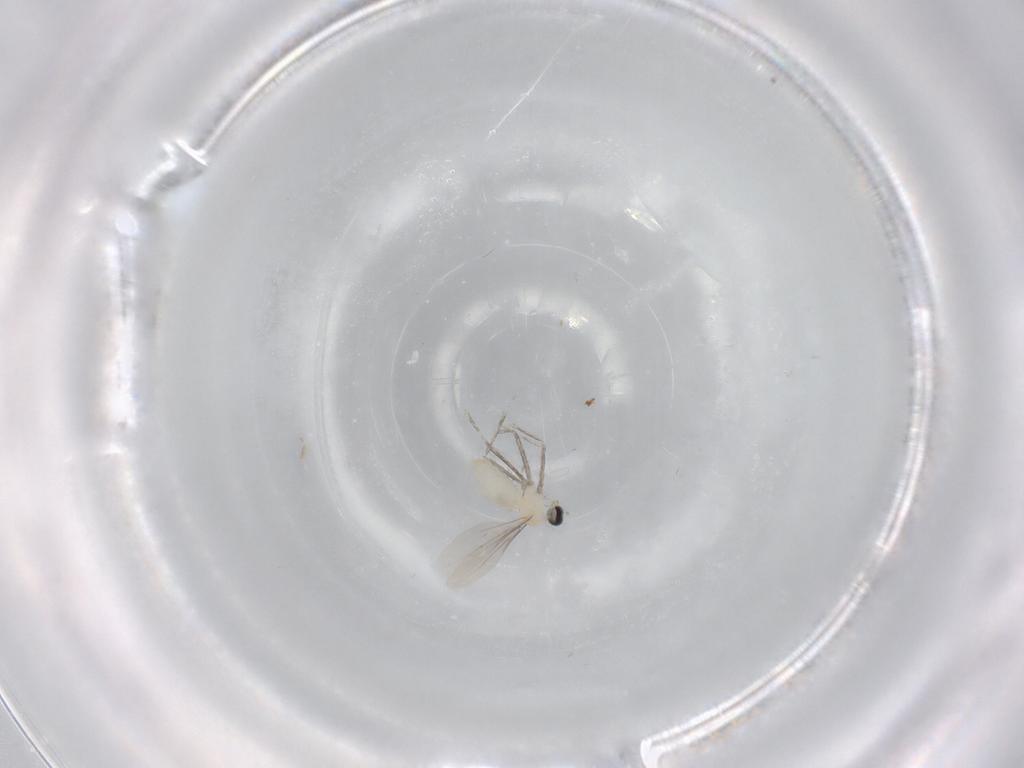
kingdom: Animalia
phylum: Arthropoda
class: Insecta
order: Diptera
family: Cecidomyiidae
